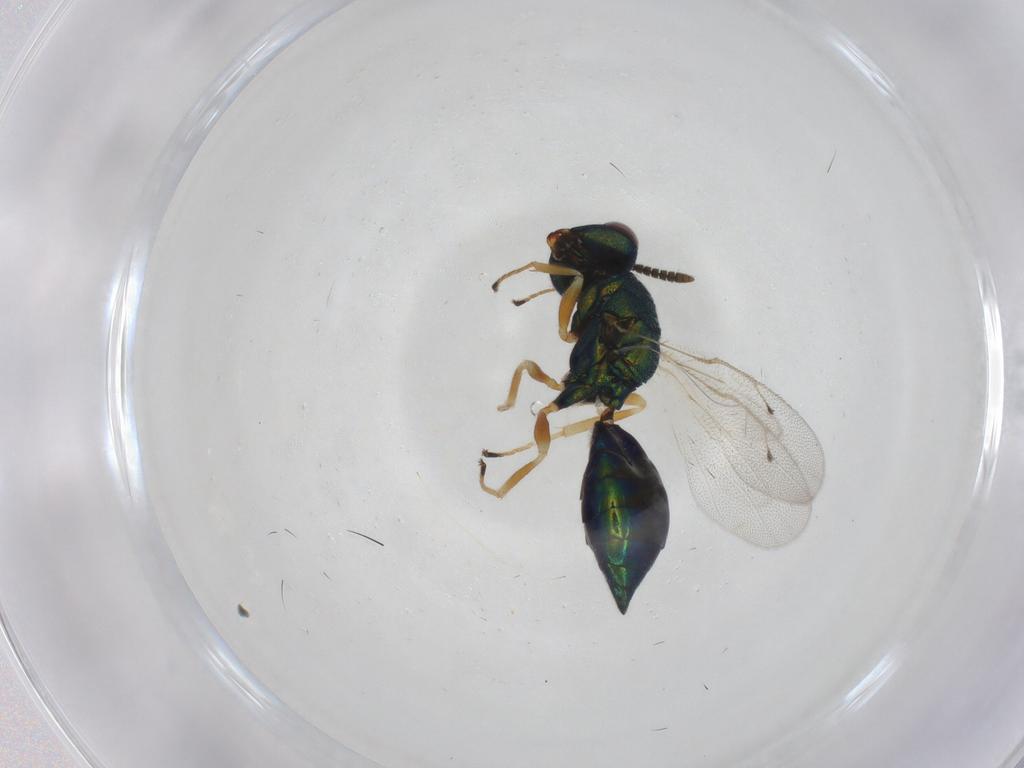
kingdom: Animalia
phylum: Arthropoda
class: Insecta
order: Hymenoptera
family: Pteromalidae
